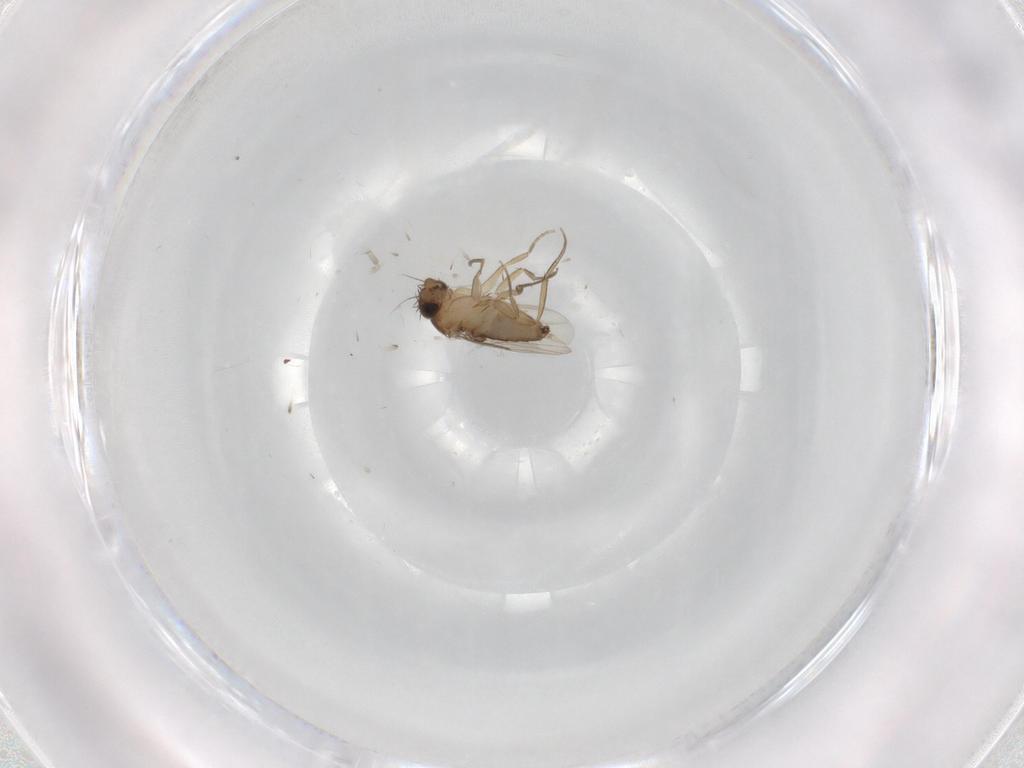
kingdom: Animalia
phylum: Arthropoda
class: Insecta
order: Diptera
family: Phoridae
